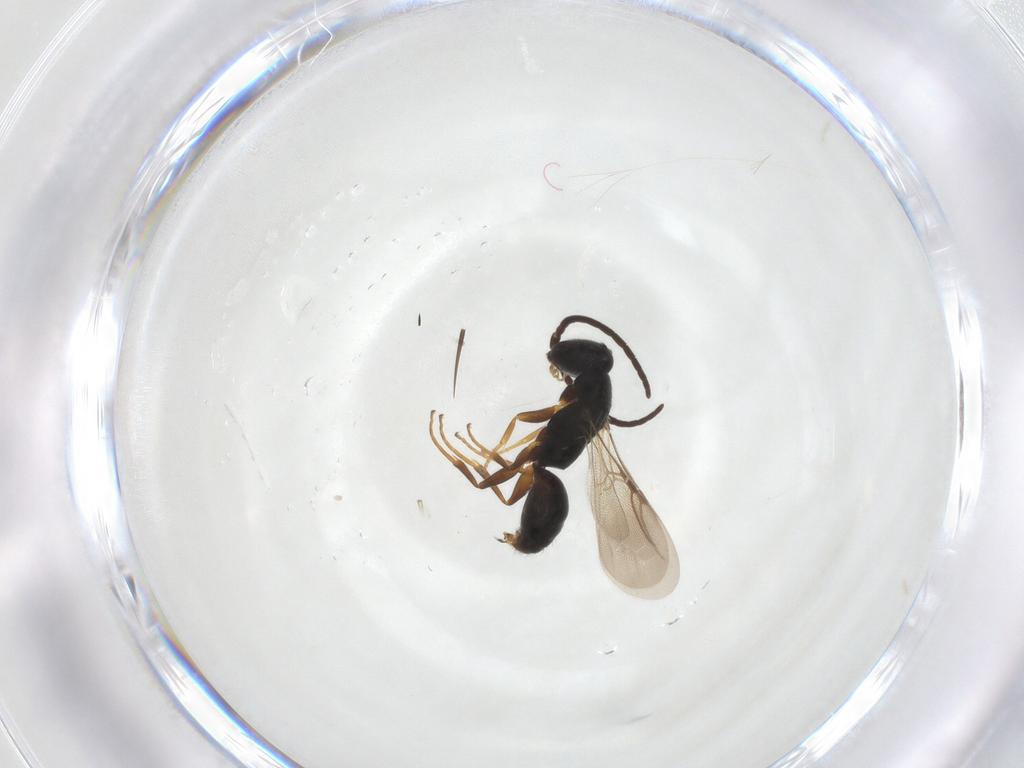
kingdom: Animalia
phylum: Arthropoda
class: Insecta
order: Hymenoptera
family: Bethylidae
